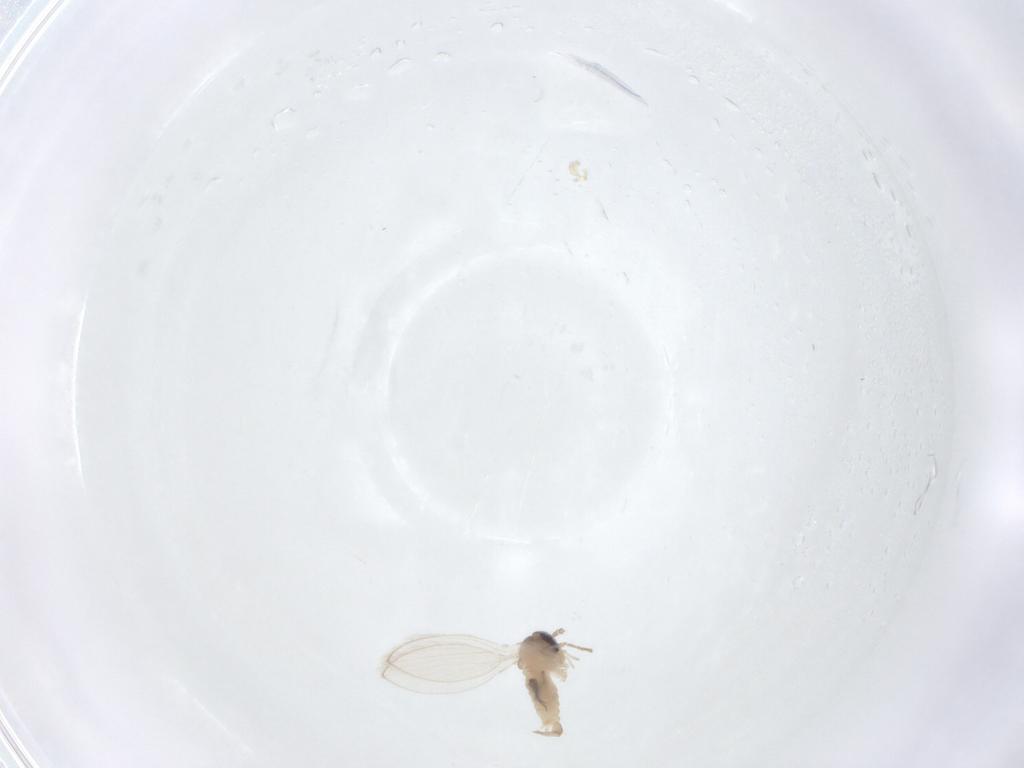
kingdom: Animalia
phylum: Arthropoda
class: Insecta
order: Diptera
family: Psychodidae
